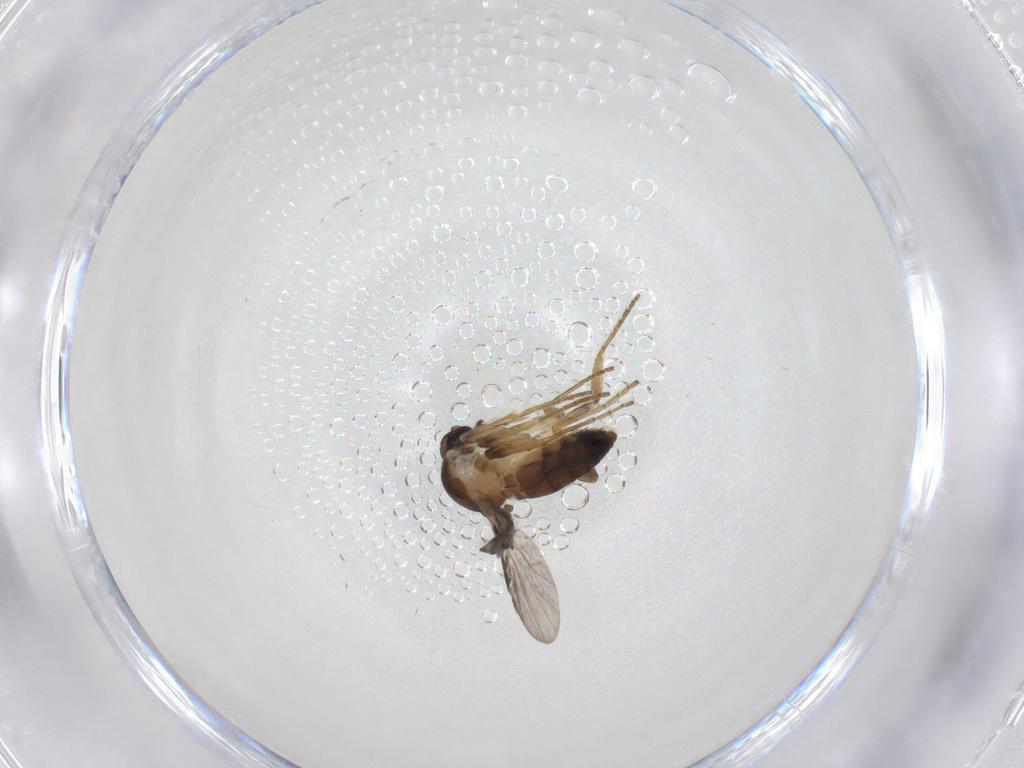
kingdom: Animalia
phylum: Arthropoda
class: Insecta
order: Diptera
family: Ceratopogonidae
